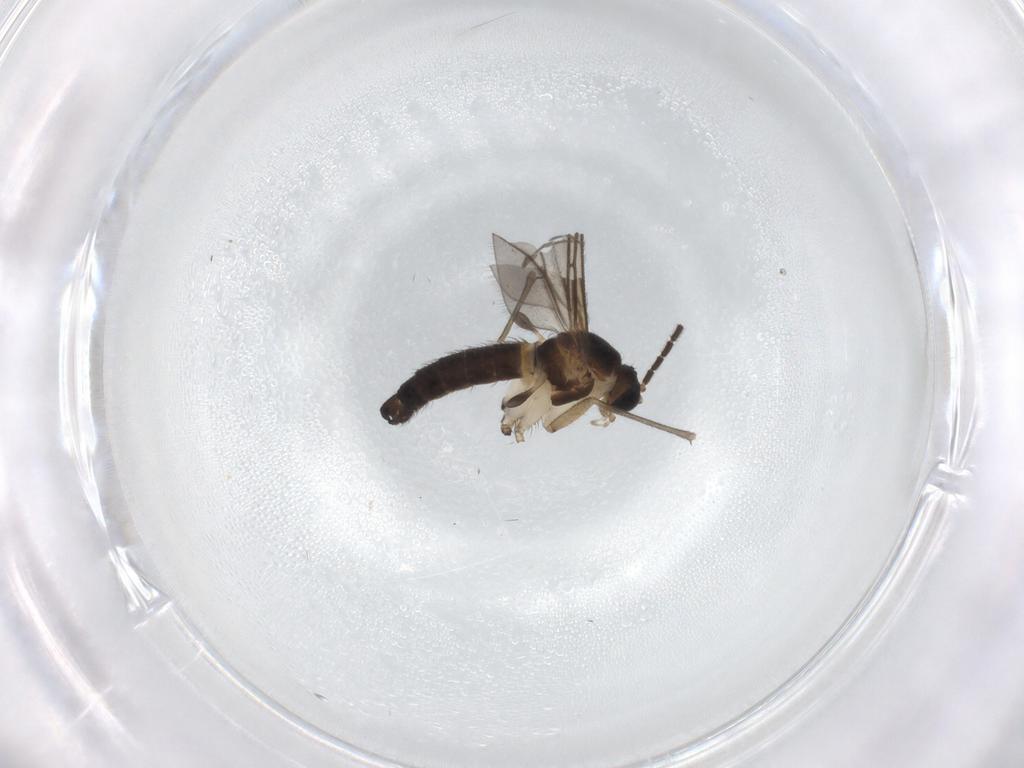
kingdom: Animalia
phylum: Arthropoda
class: Insecta
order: Diptera
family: Sciaridae
